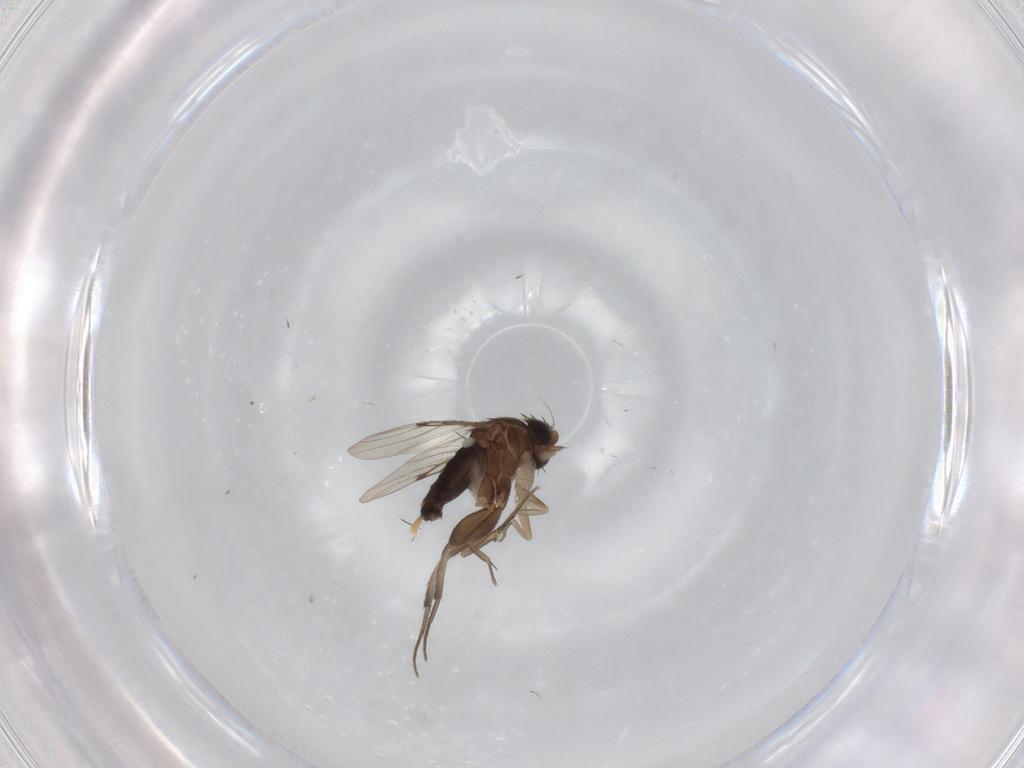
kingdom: Animalia
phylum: Arthropoda
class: Insecta
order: Diptera
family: Phoridae
